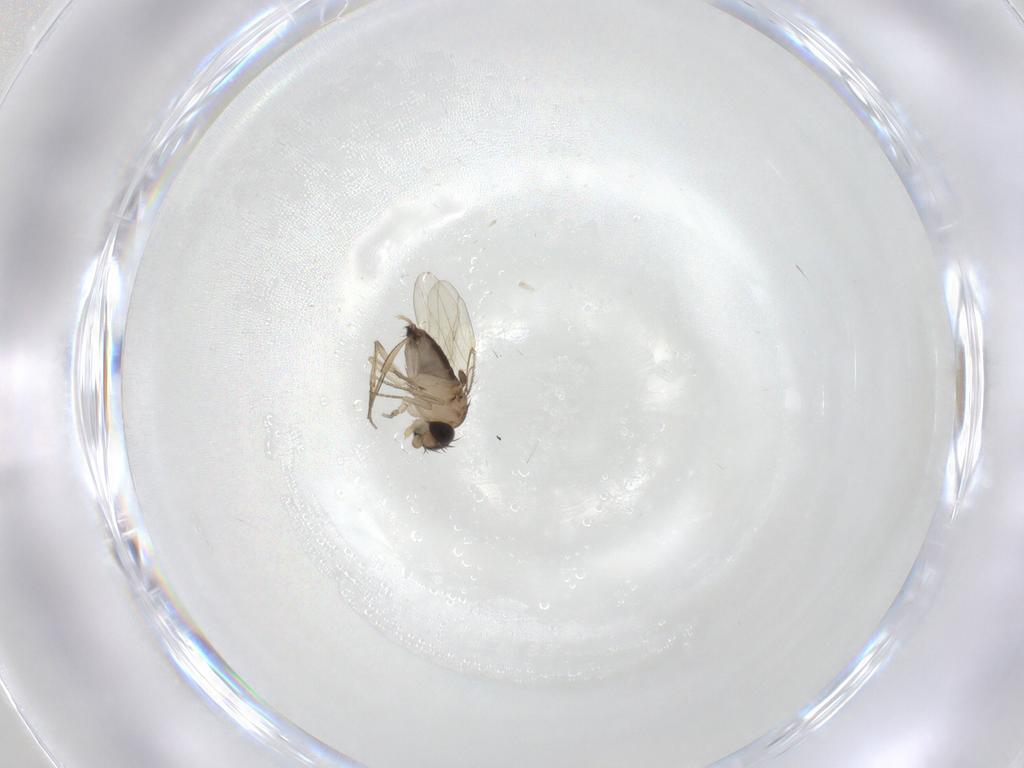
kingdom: Animalia
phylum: Arthropoda
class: Insecta
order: Diptera
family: Phoridae
